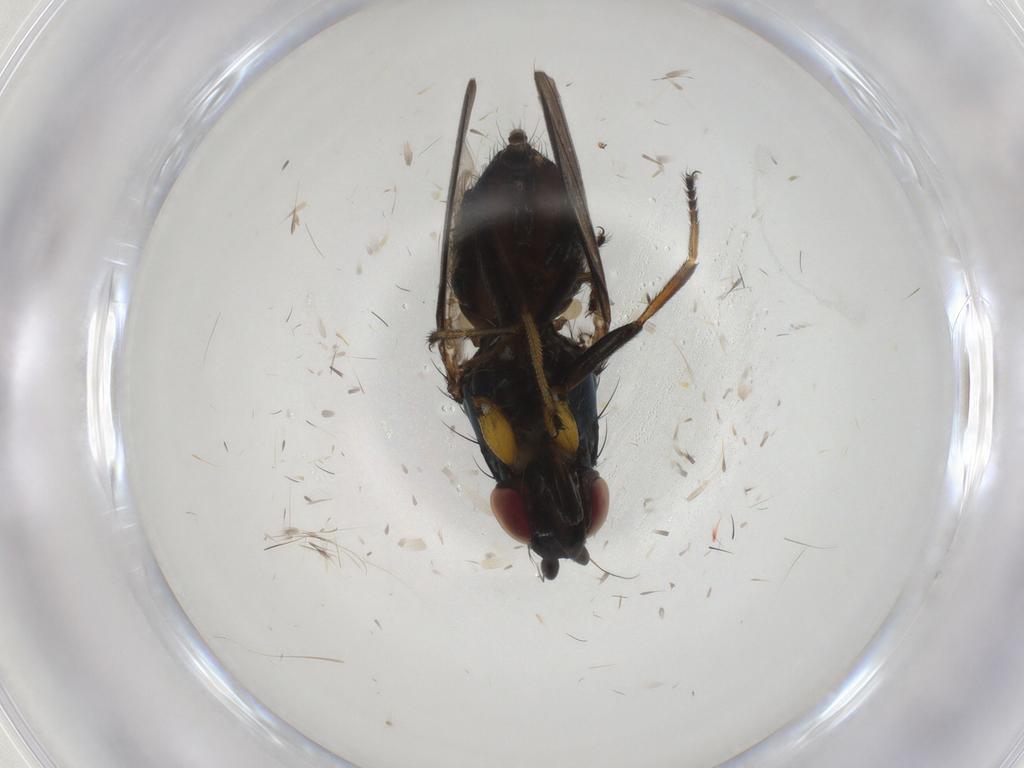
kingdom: Animalia
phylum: Arthropoda
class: Insecta
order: Diptera
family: Milichiidae
